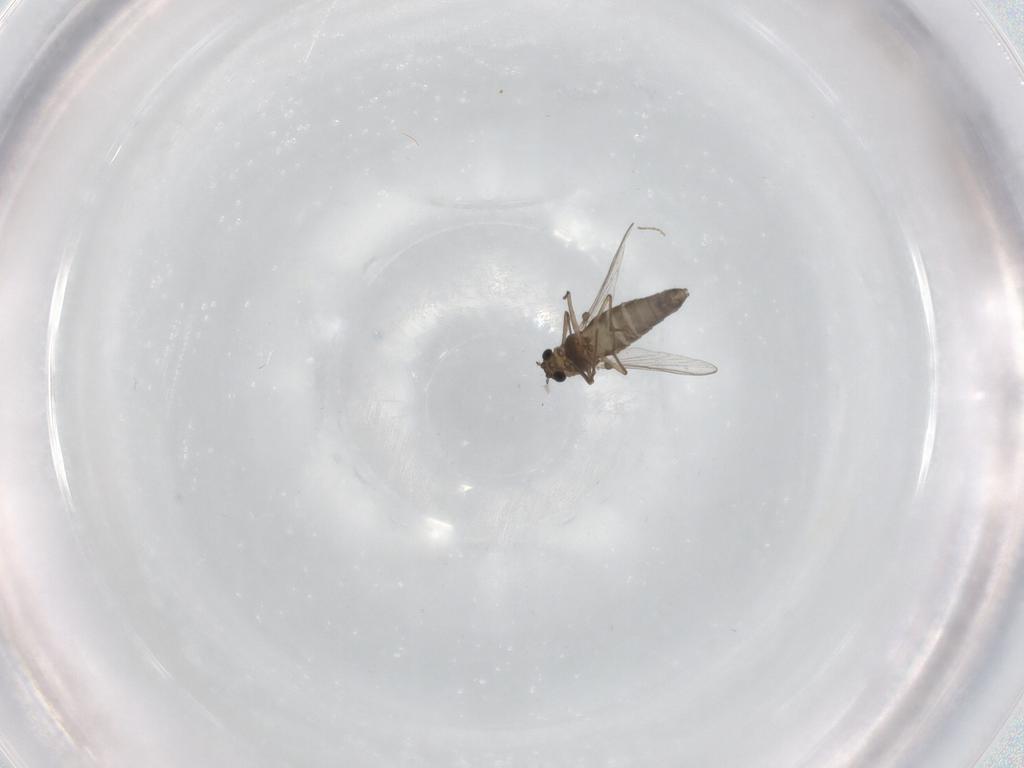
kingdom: Animalia
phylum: Arthropoda
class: Insecta
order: Diptera
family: Chironomidae
